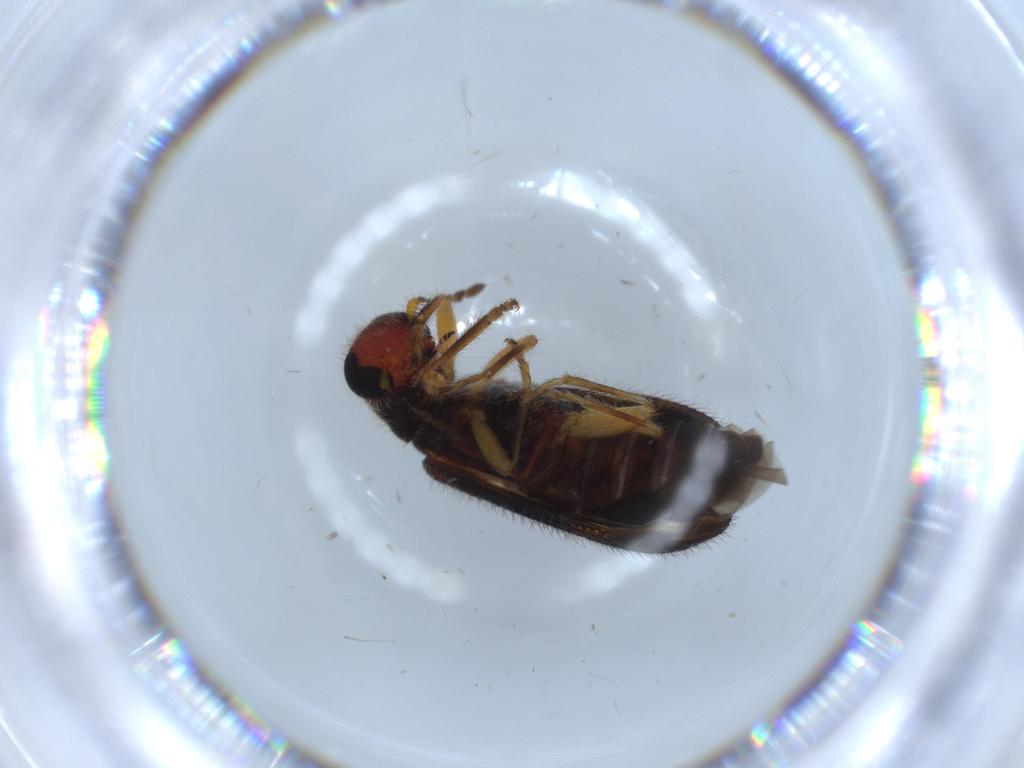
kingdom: Animalia
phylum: Arthropoda
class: Insecta
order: Coleoptera
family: Cleridae
